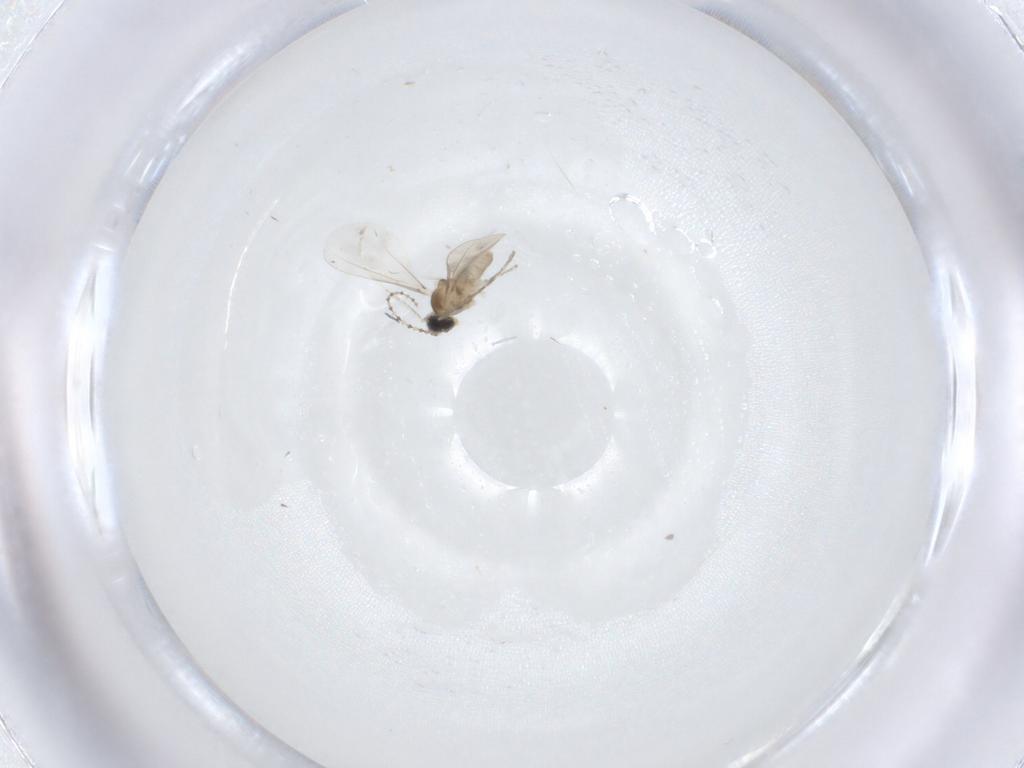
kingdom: Animalia
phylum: Arthropoda
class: Insecta
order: Diptera
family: Cecidomyiidae
